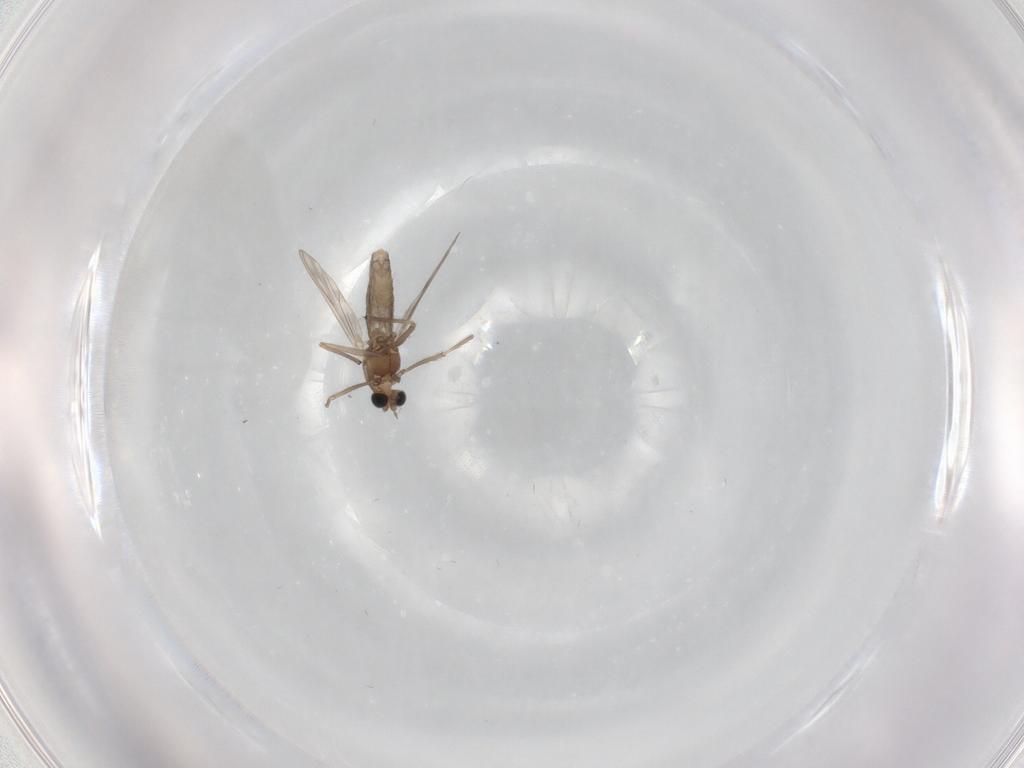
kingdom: Animalia
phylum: Arthropoda
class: Insecta
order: Diptera
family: Chironomidae
